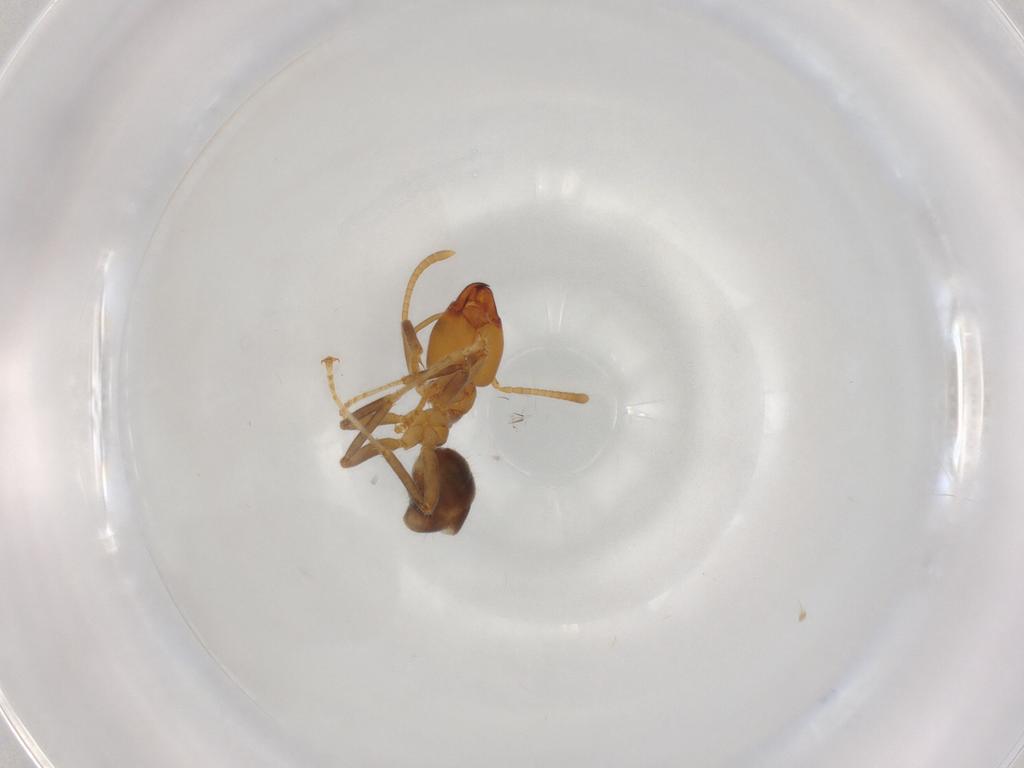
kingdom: Animalia
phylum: Arthropoda
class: Insecta
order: Hymenoptera
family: Formicidae
